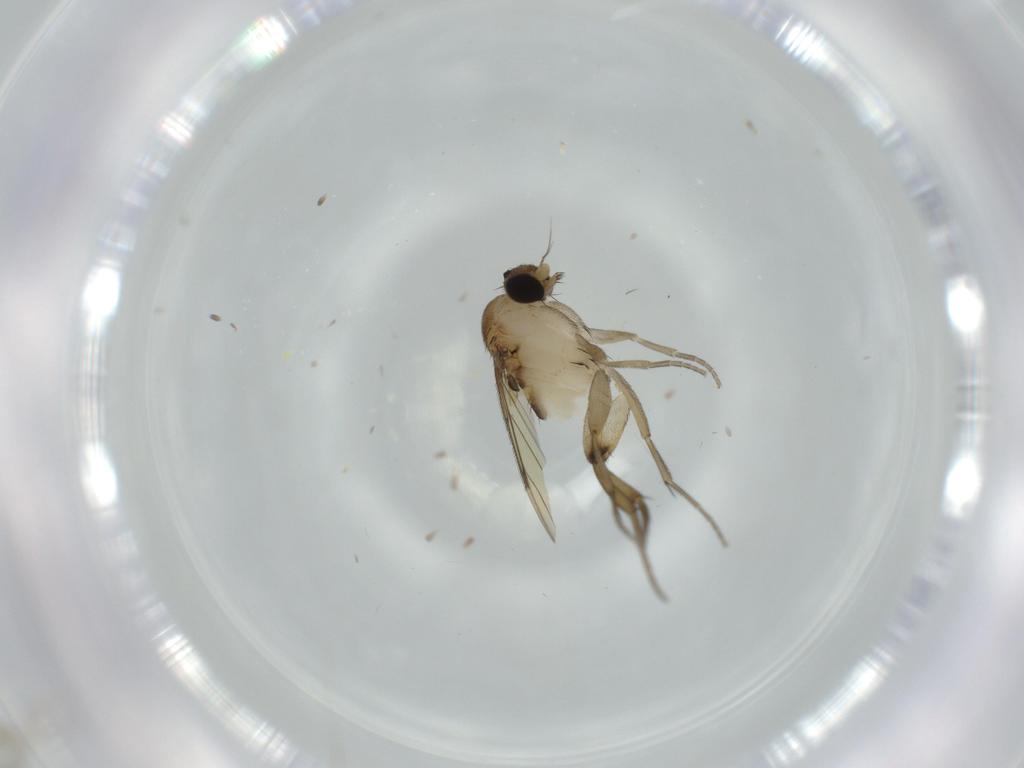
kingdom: Animalia
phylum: Arthropoda
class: Insecta
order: Diptera
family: Phoridae
